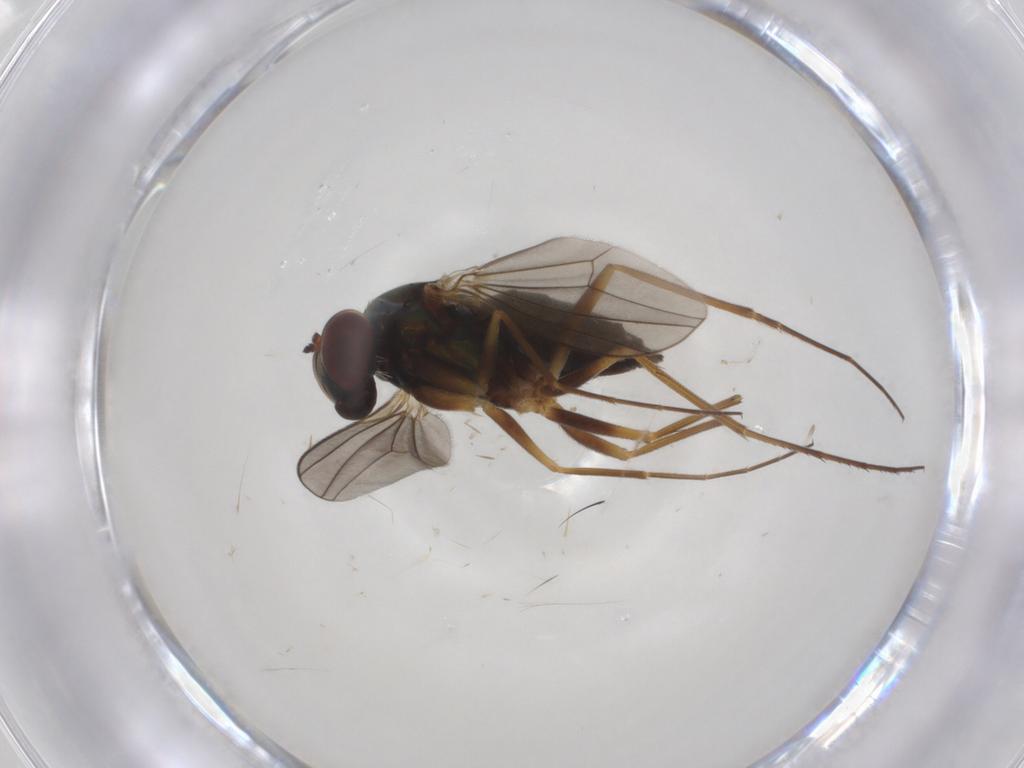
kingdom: Animalia
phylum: Arthropoda
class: Insecta
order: Diptera
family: Dolichopodidae
